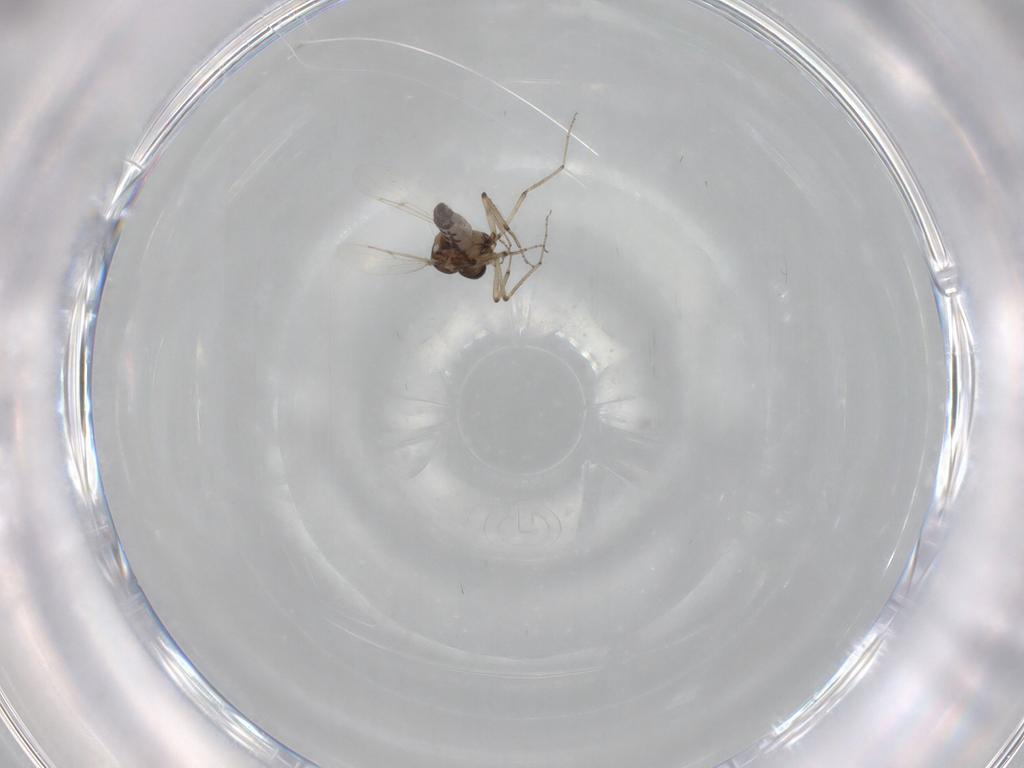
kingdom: Animalia
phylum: Arthropoda
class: Insecta
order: Diptera
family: Ceratopogonidae
